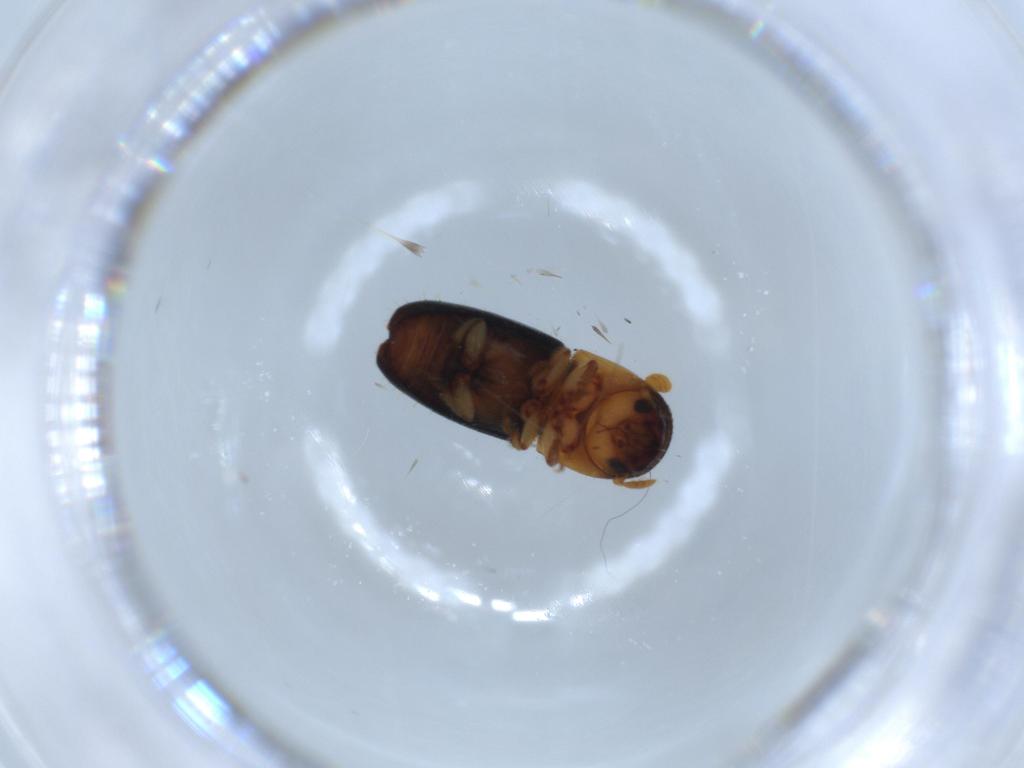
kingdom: Animalia
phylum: Arthropoda
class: Insecta
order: Coleoptera
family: Curculionidae
